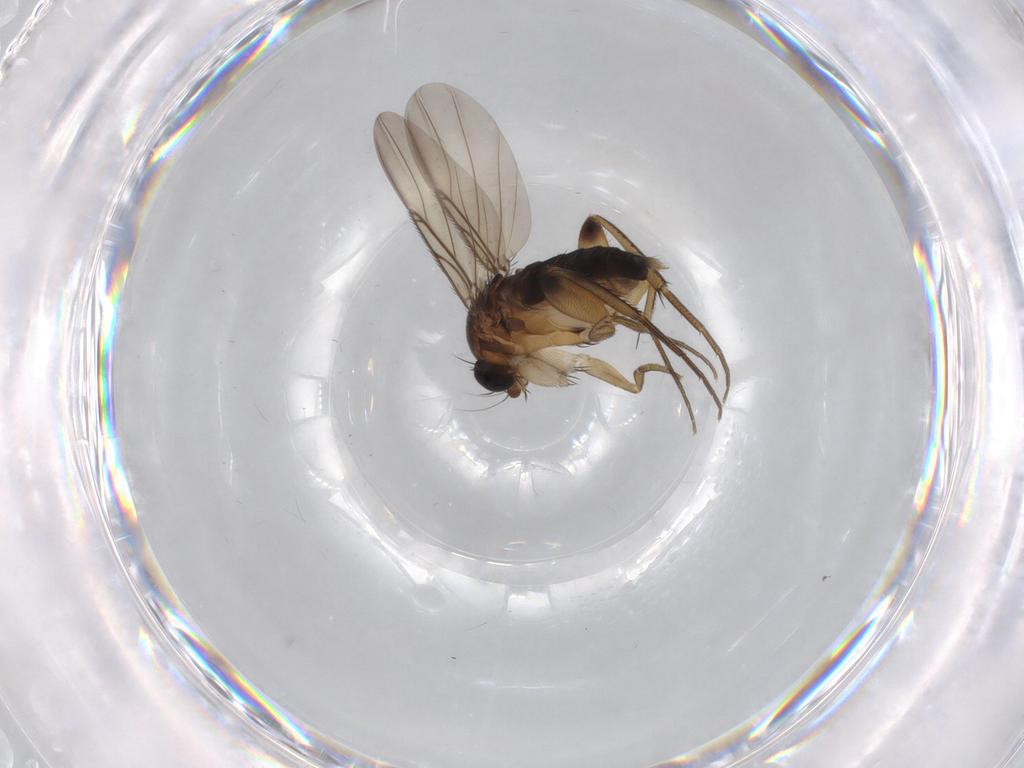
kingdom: Animalia
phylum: Arthropoda
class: Insecta
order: Diptera
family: Phoridae
